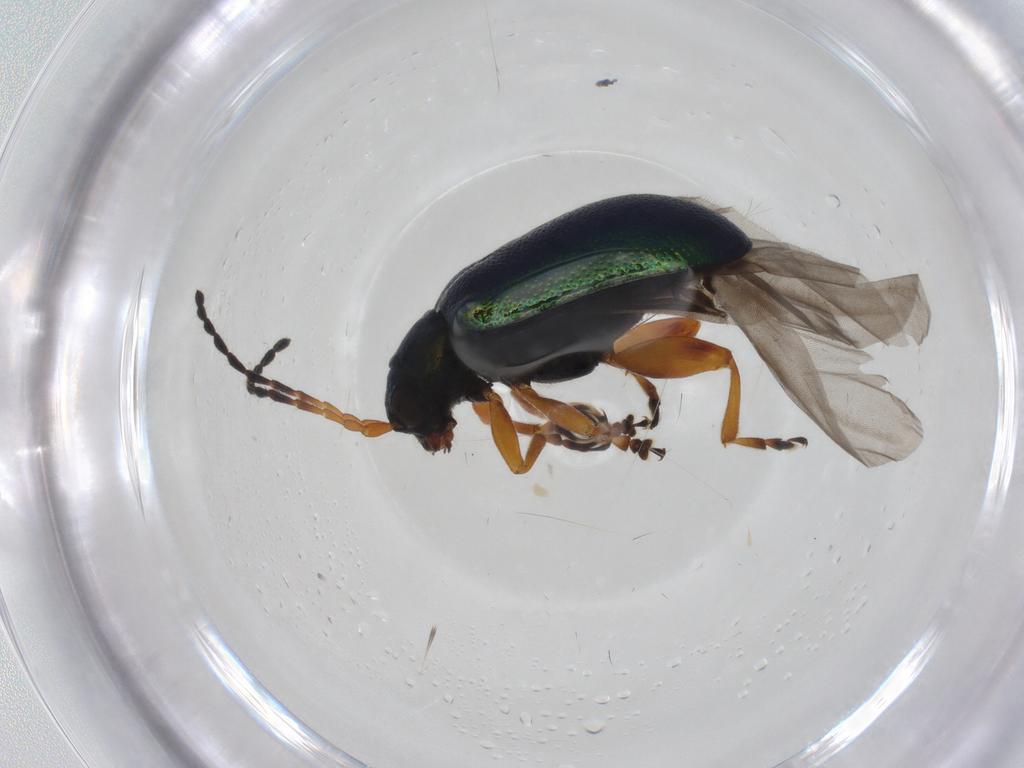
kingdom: Animalia
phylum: Arthropoda
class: Insecta
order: Coleoptera
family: Chrysomelidae
